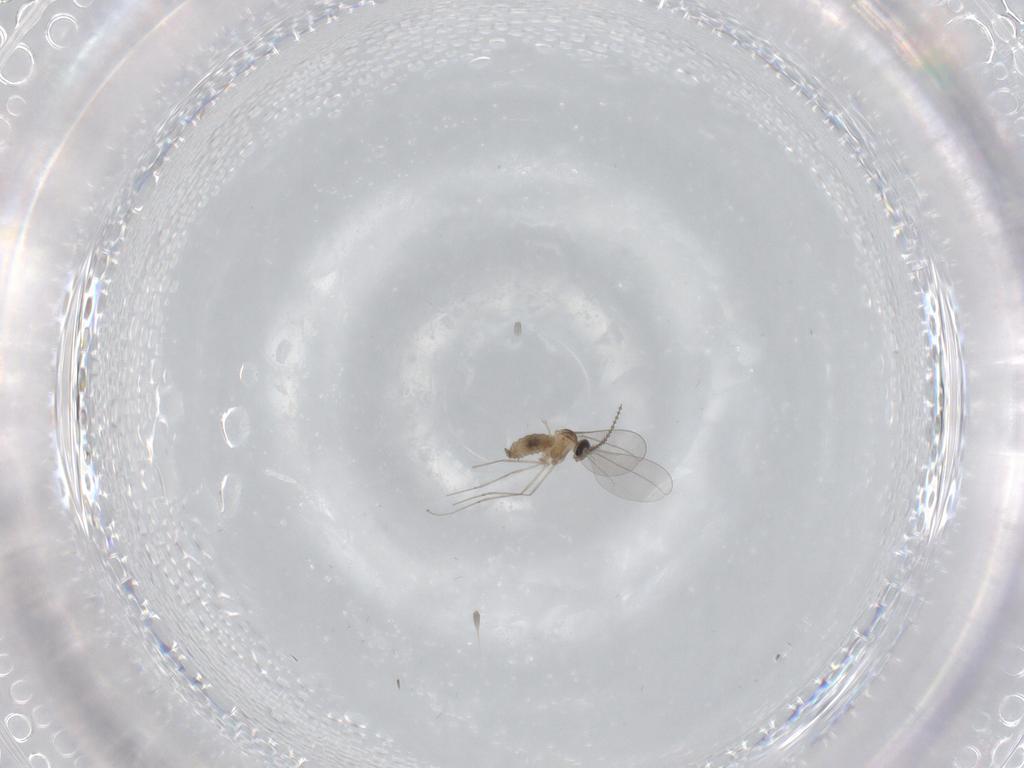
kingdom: Animalia
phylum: Arthropoda
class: Insecta
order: Diptera
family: Cecidomyiidae
